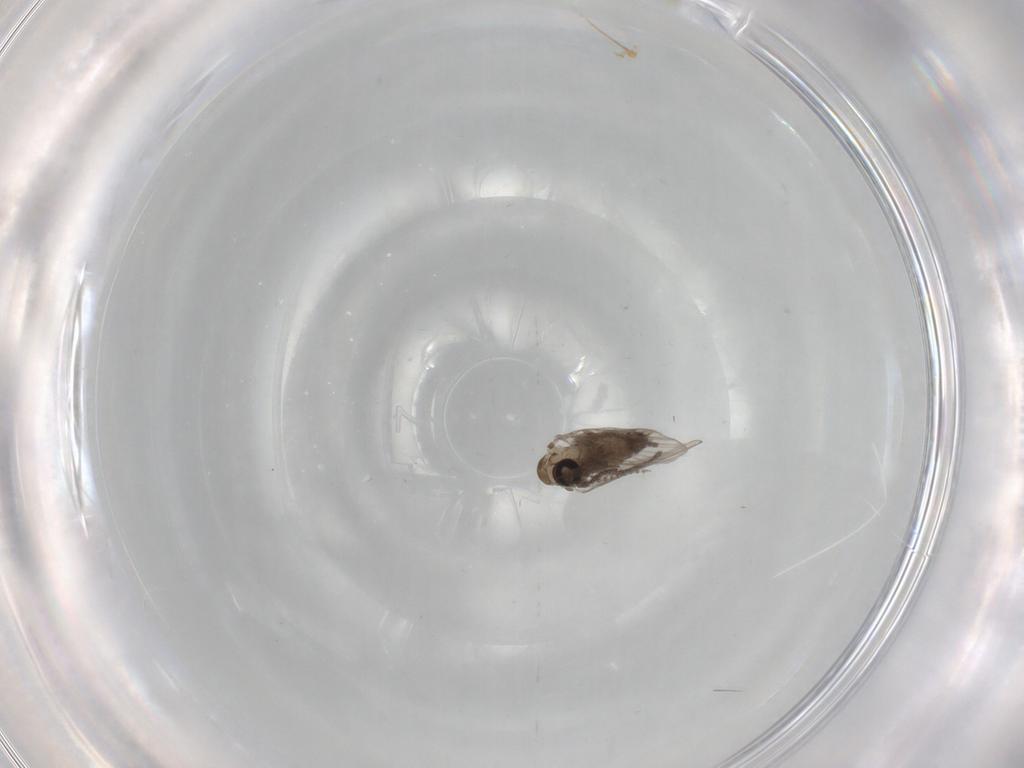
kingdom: Animalia
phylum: Arthropoda
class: Insecta
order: Diptera
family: Psychodidae
